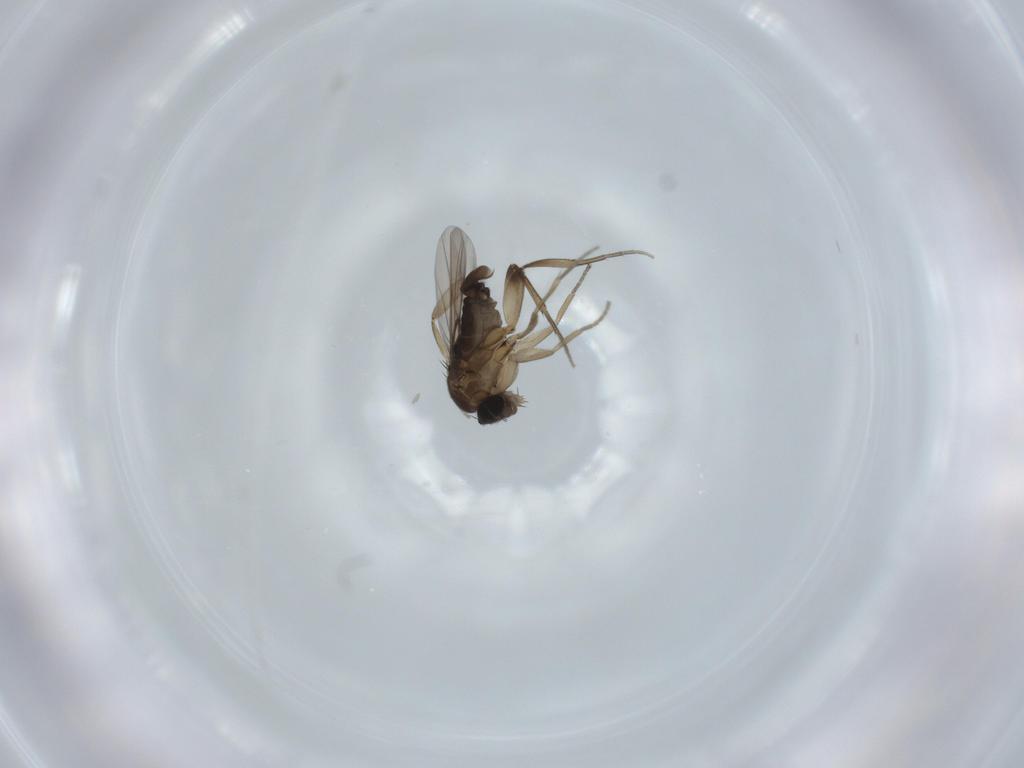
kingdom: Animalia
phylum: Arthropoda
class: Insecta
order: Diptera
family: Phoridae
